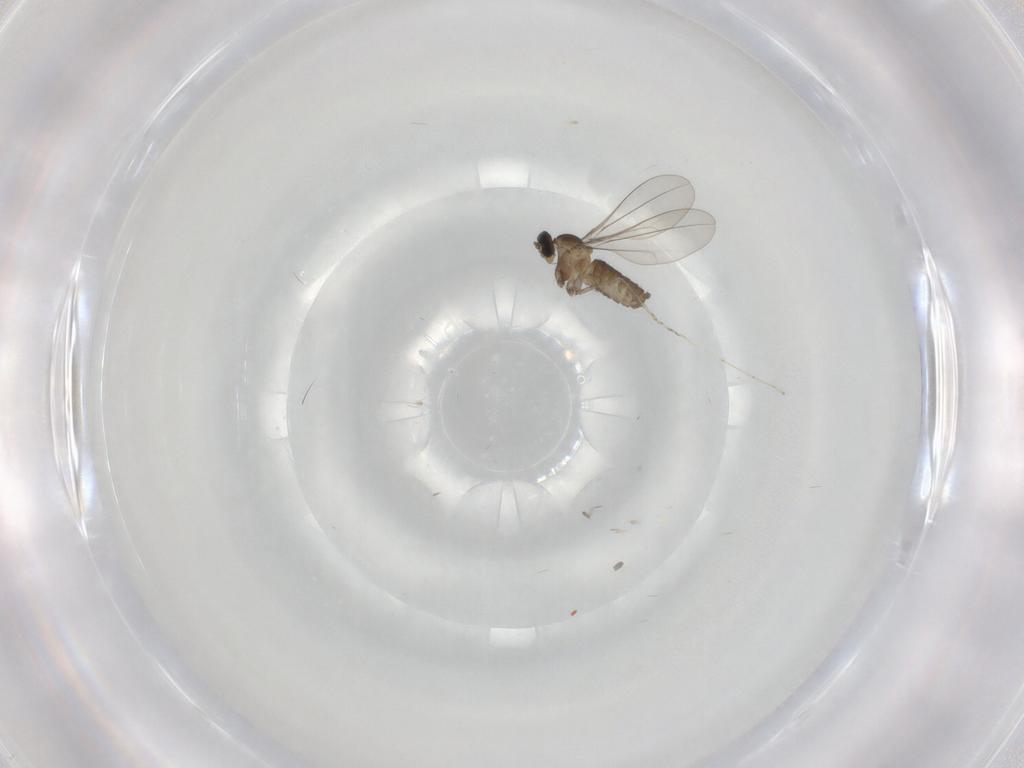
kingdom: Animalia
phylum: Arthropoda
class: Insecta
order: Diptera
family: Cecidomyiidae
